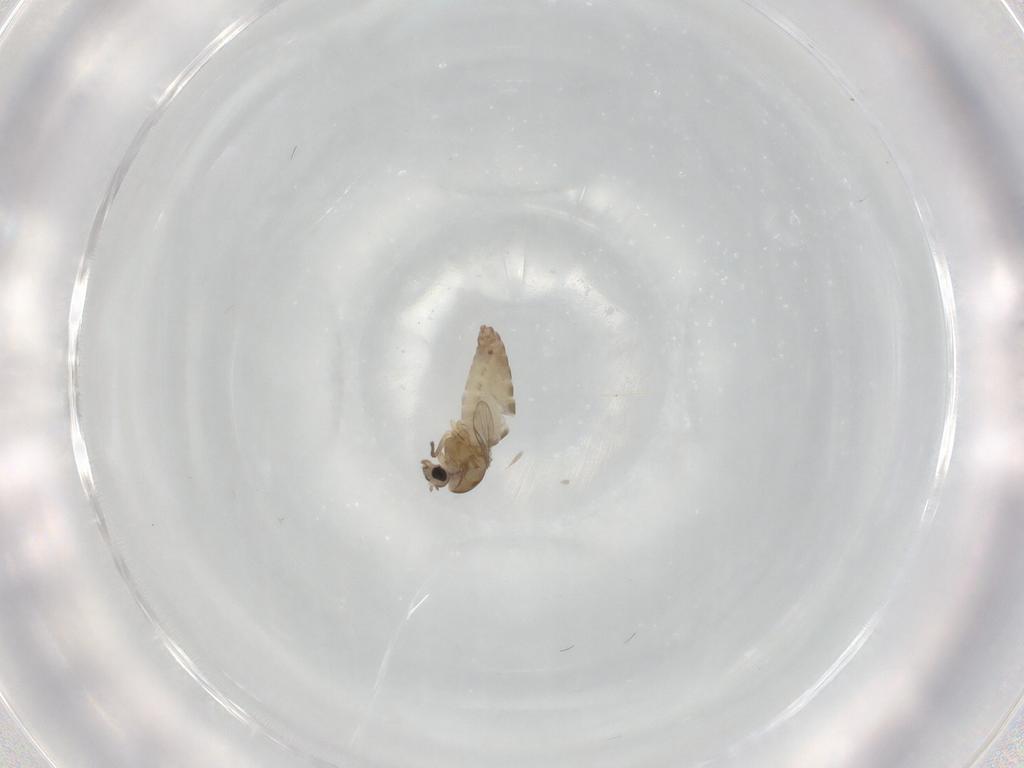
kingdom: Animalia
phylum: Arthropoda
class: Insecta
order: Diptera
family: Chironomidae
